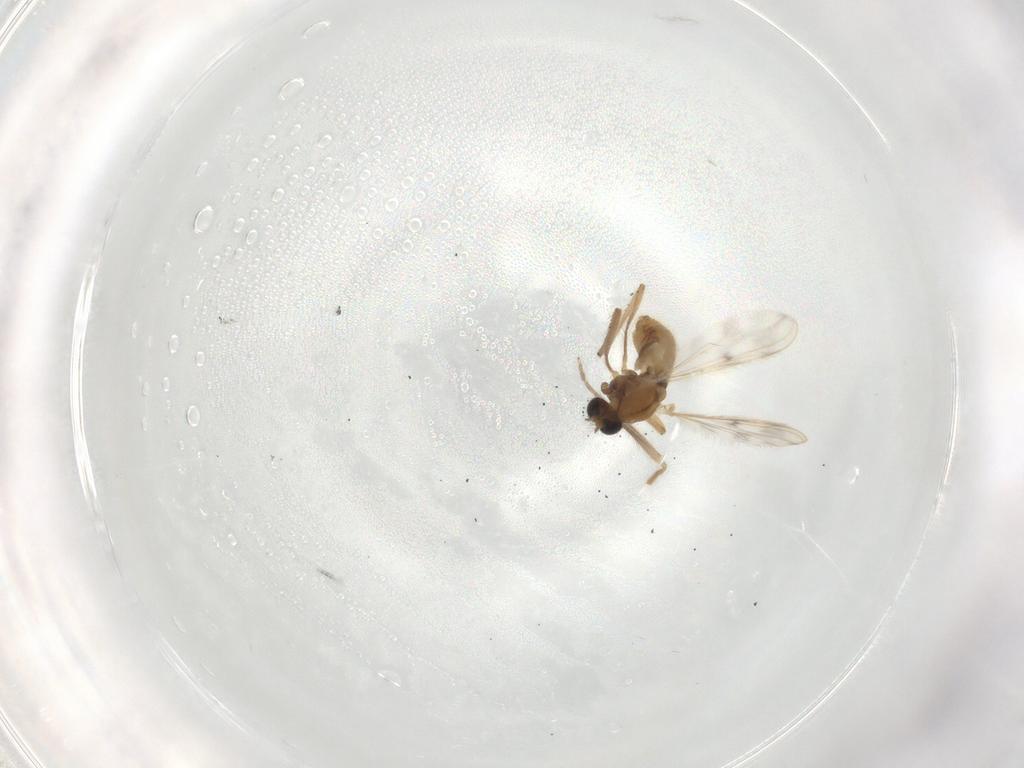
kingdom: Animalia
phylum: Arthropoda
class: Insecta
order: Diptera
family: Chironomidae
